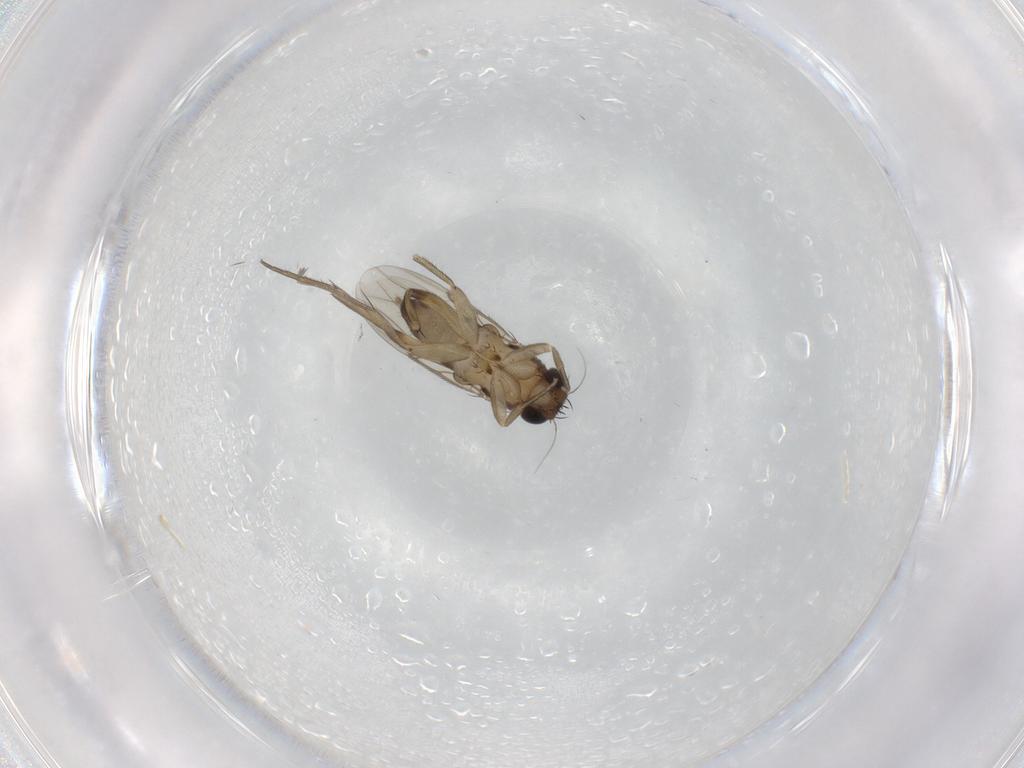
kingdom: Animalia
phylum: Arthropoda
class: Insecta
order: Diptera
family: Phoridae
